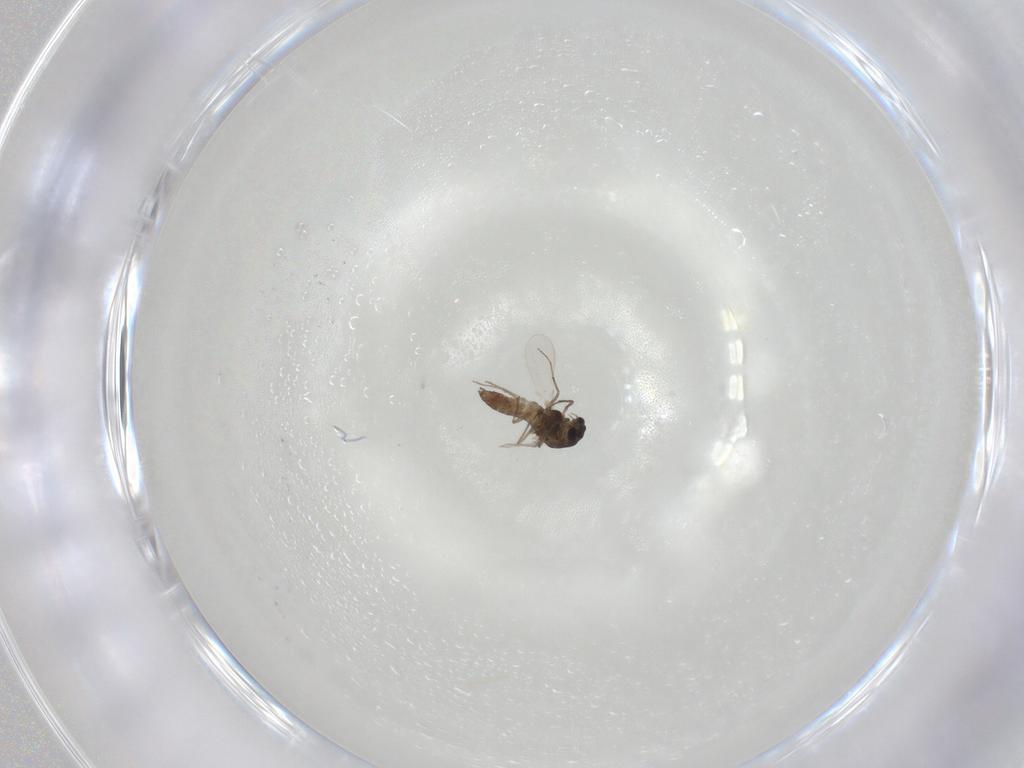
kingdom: Animalia
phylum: Arthropoda
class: Insecta
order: Diptera
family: Chironomidae
